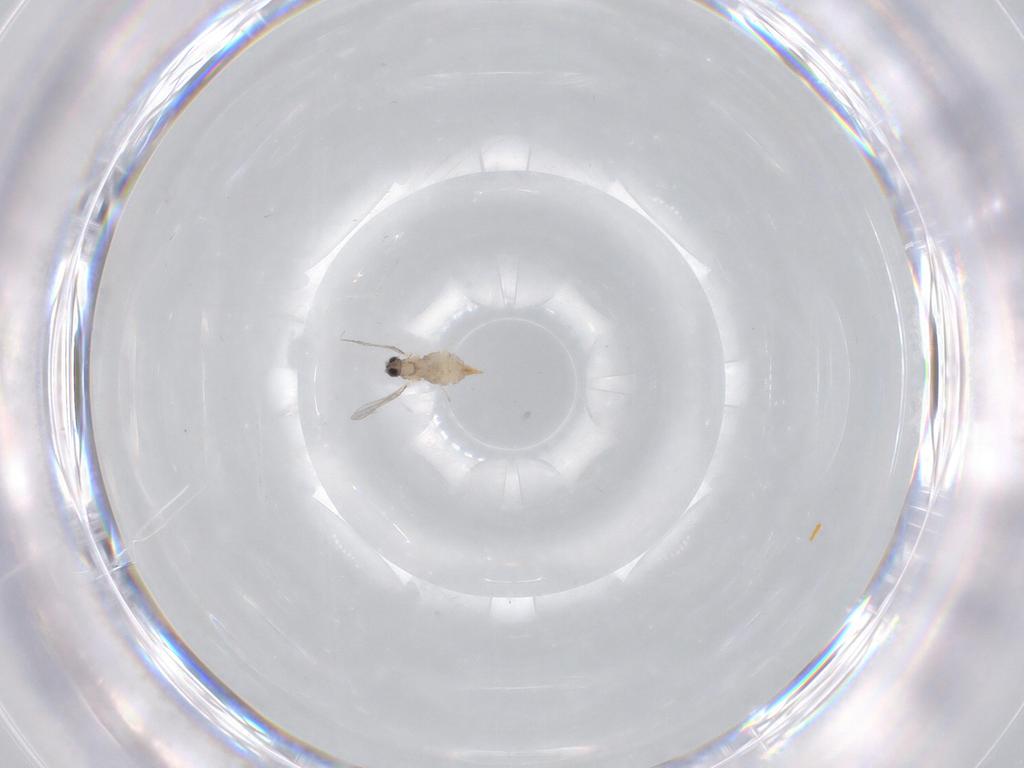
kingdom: Animalia
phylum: Arthropoda
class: Insecta
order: Diptera
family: Cecidomyiidae
